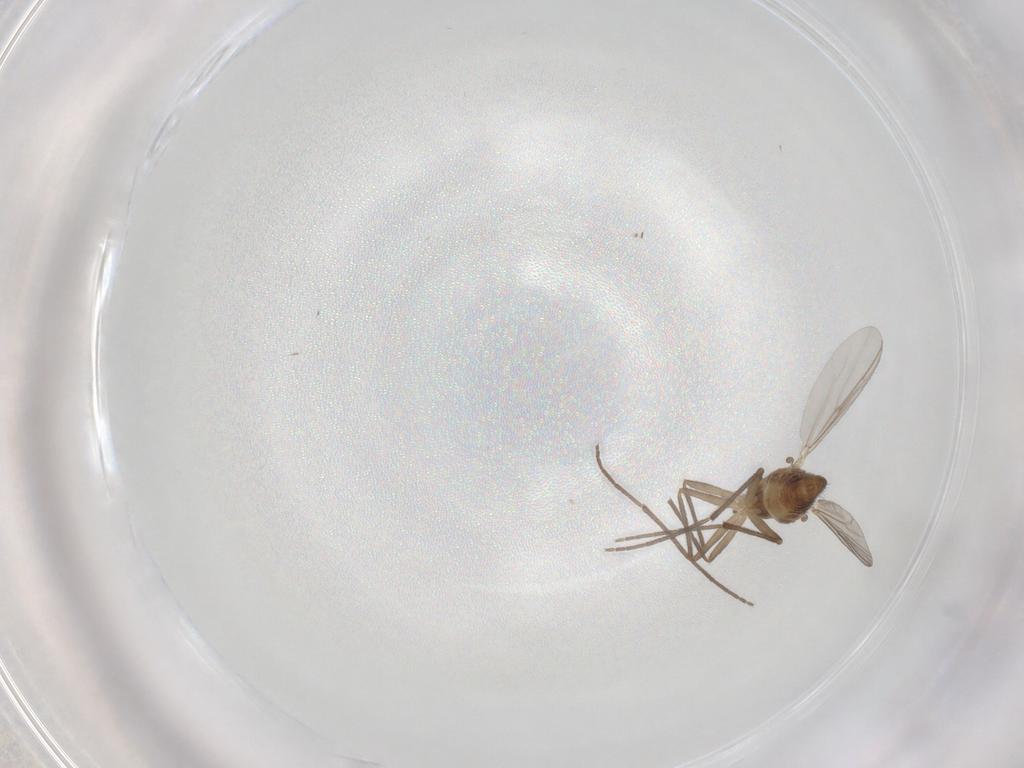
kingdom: Animalia
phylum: Arthropoda
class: Insecta
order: Diptera
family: Chironomidae
